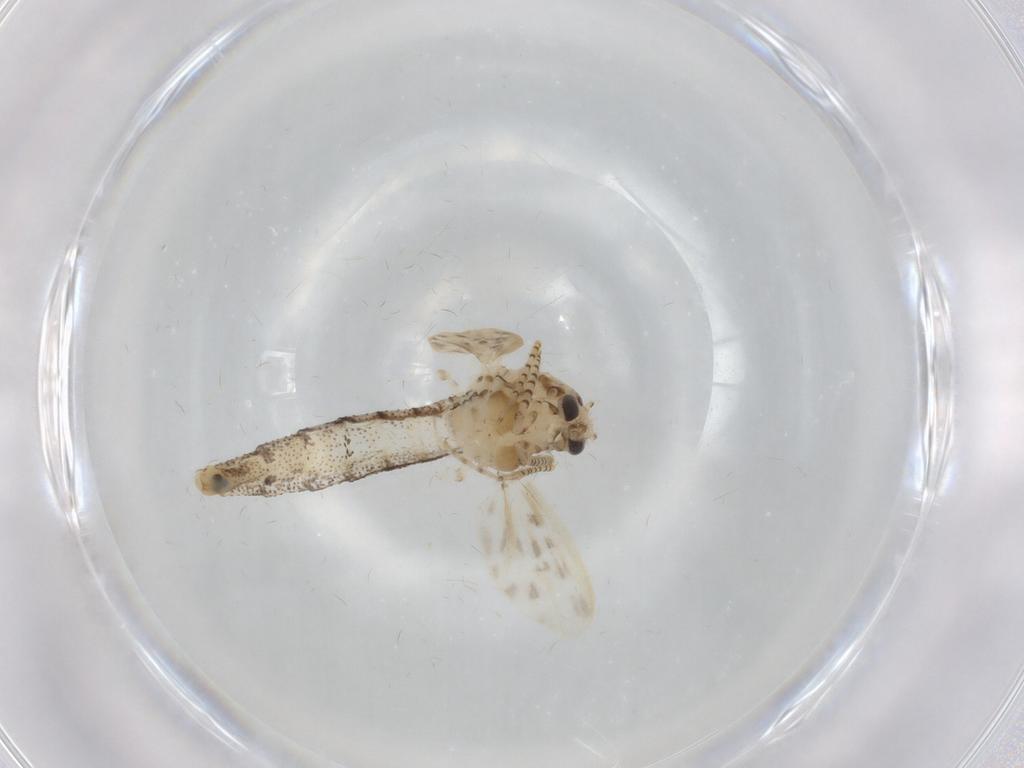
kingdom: Animalia
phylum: Arthropoda
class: Insecta
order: Diptera
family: Chaoboridae
